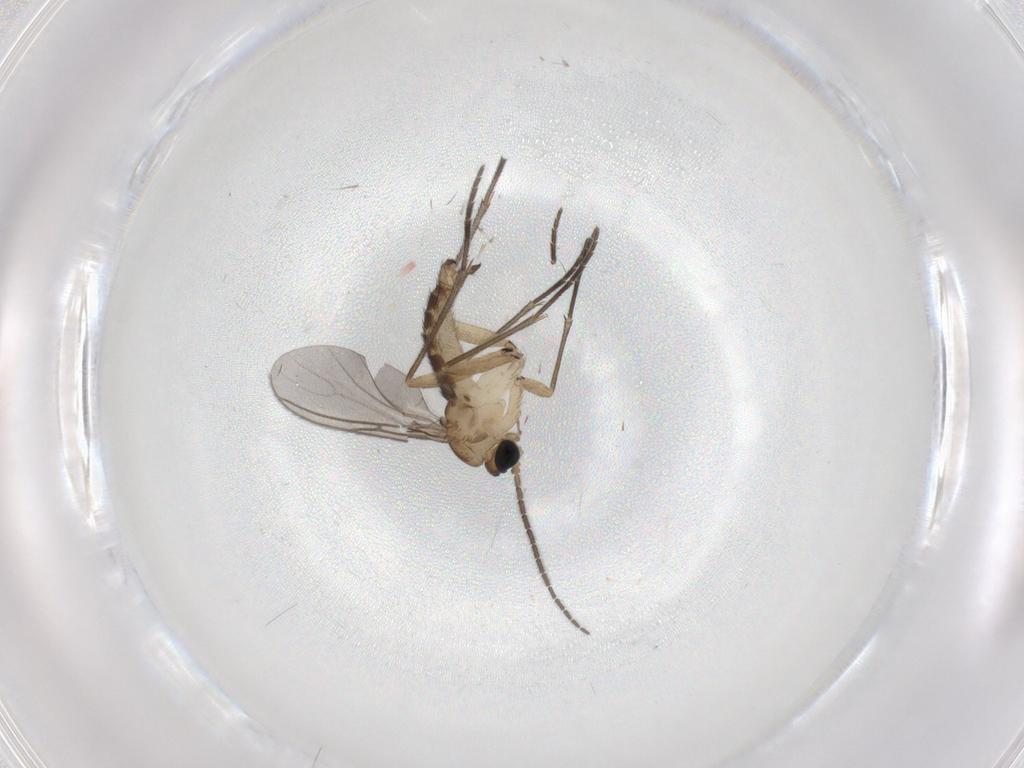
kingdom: Animalia
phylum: Arthropoda
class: Insecta
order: Diptera
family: Sciaridae
